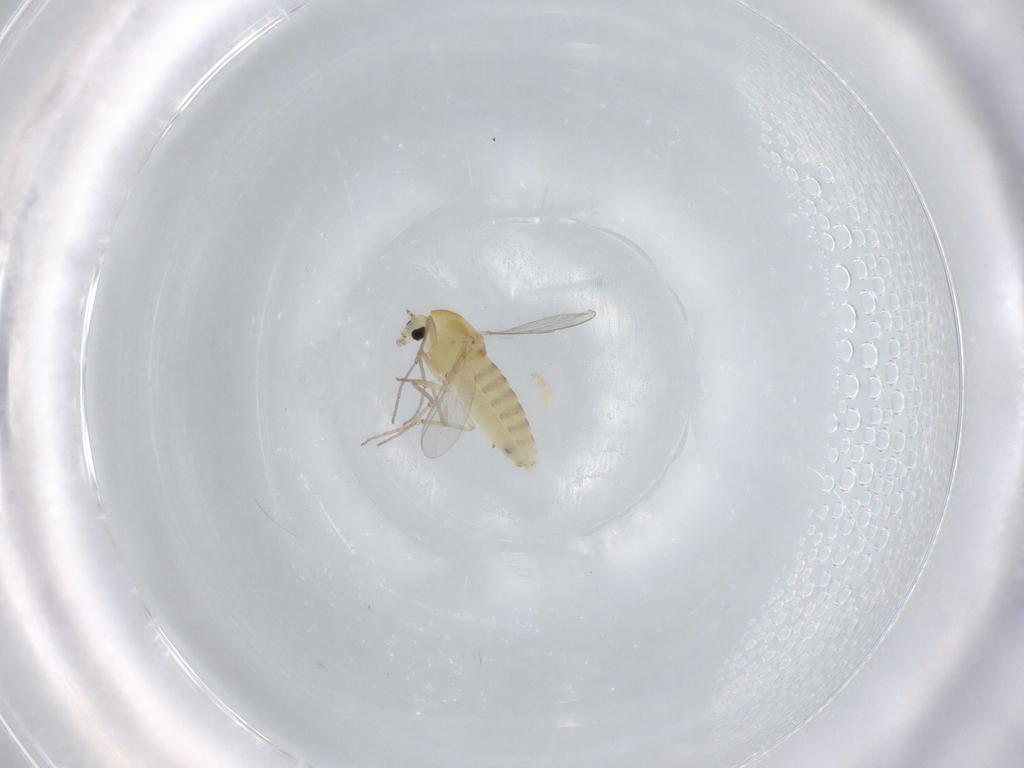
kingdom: Animalia
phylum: Arthropoda
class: Insecta
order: Diptera
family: Chironomidae
